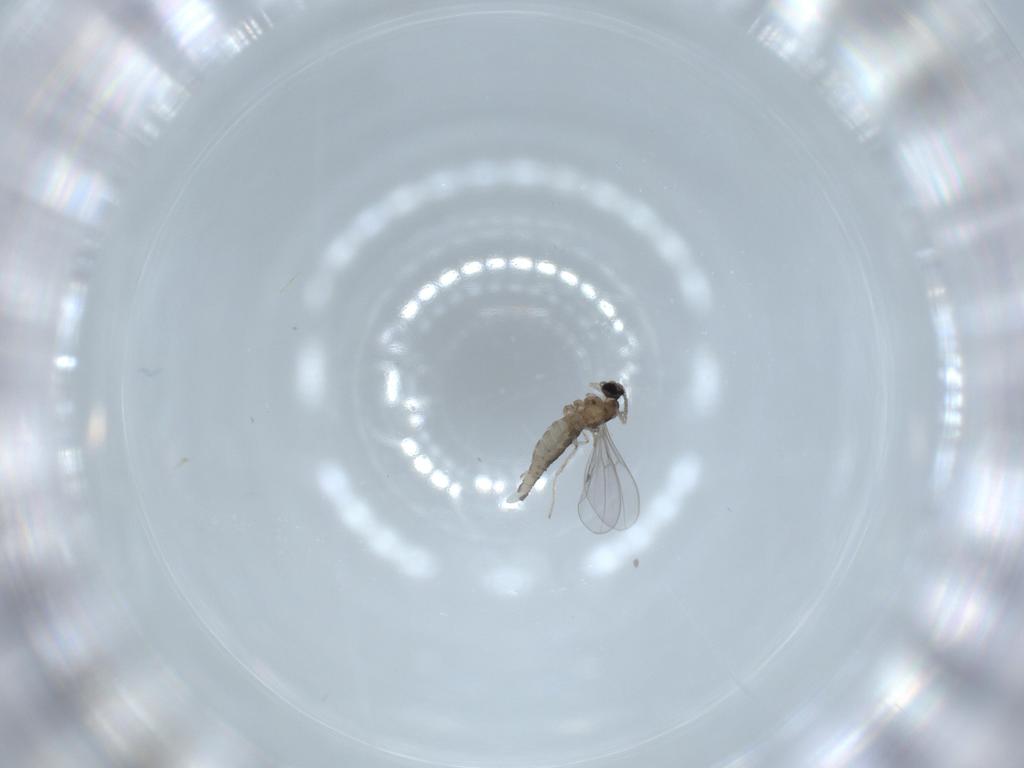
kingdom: Animalia
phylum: Arthropoda
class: Insecta
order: Diptera
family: Cecidomyiidae
